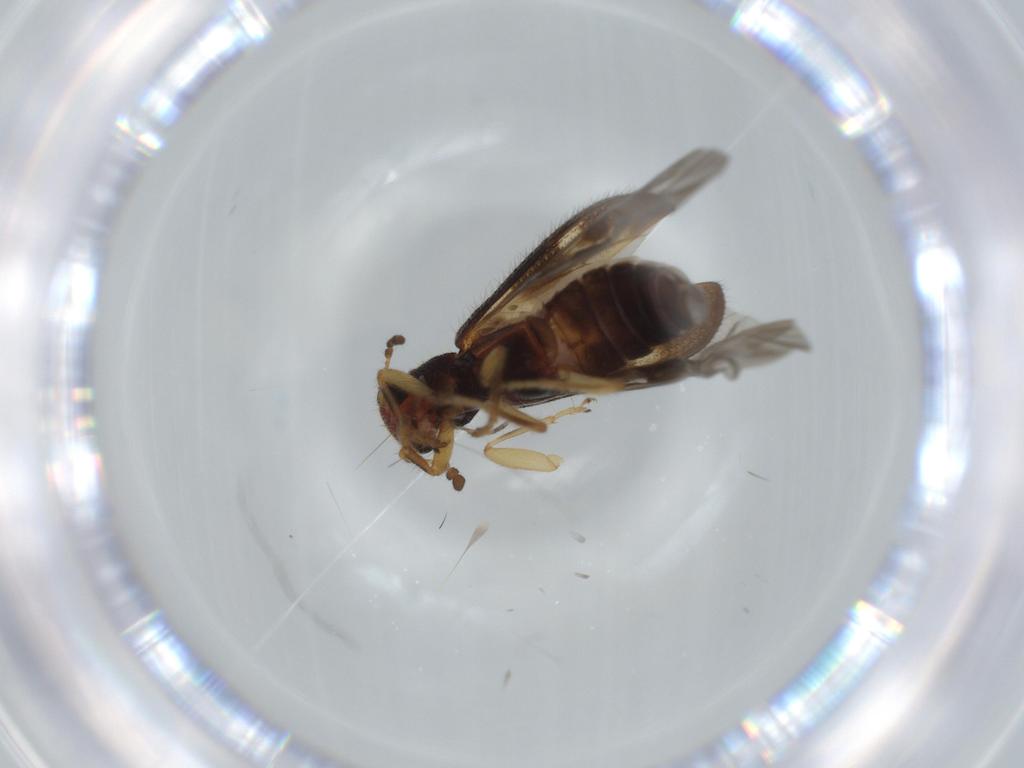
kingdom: Animalia
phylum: Arthropoda
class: Insecta
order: Coleoptera
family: Cleridae
